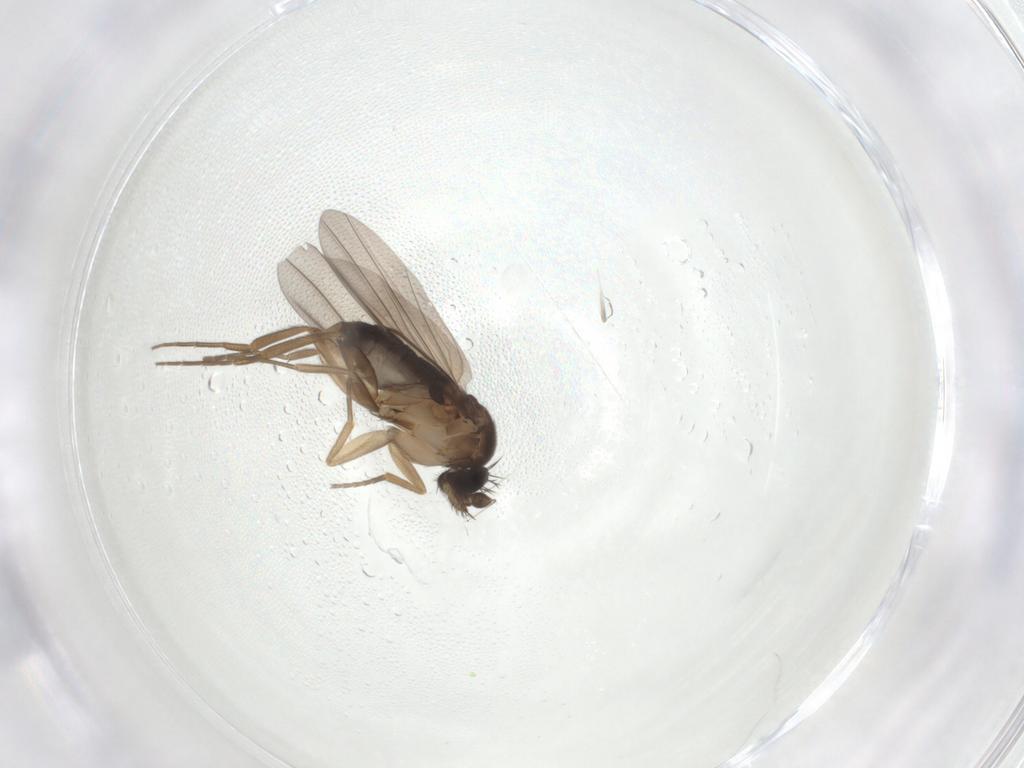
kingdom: Animalia
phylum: Arthropoda
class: Insecta
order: Diptera
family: Phoridae
